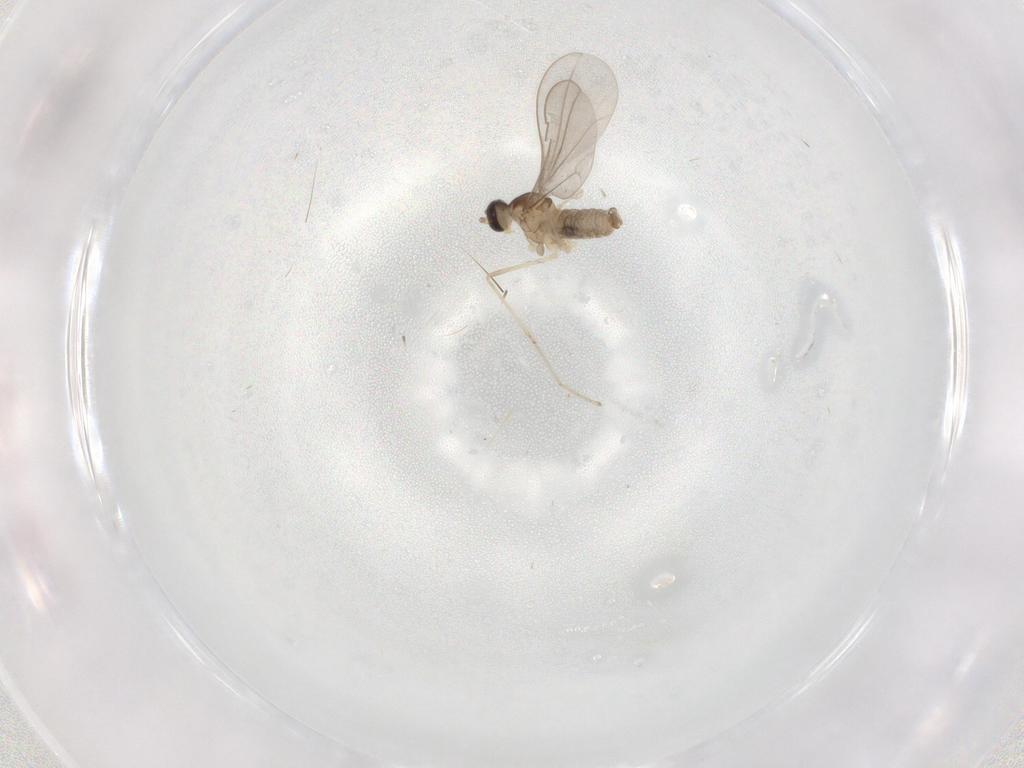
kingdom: Animalia
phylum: Arthropoda
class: Insecta
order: Diptera
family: Cecidomyiidae
